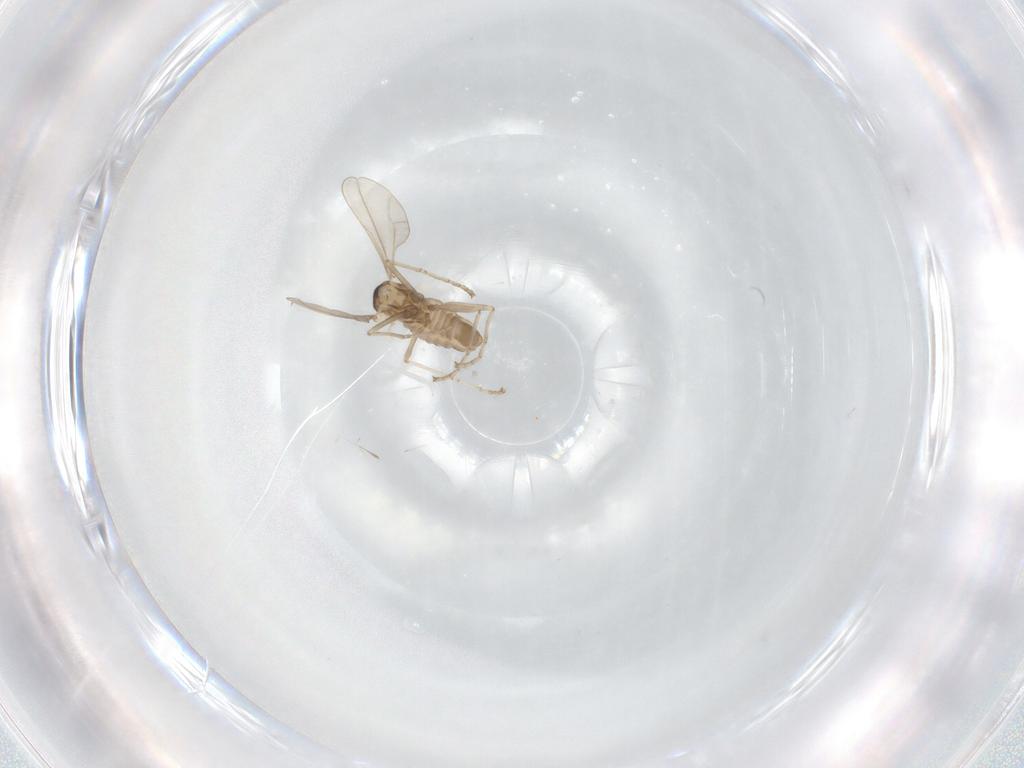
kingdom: Animalia
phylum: Arthropoda
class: Insecta
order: Diptera
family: Cecidomyiidae
